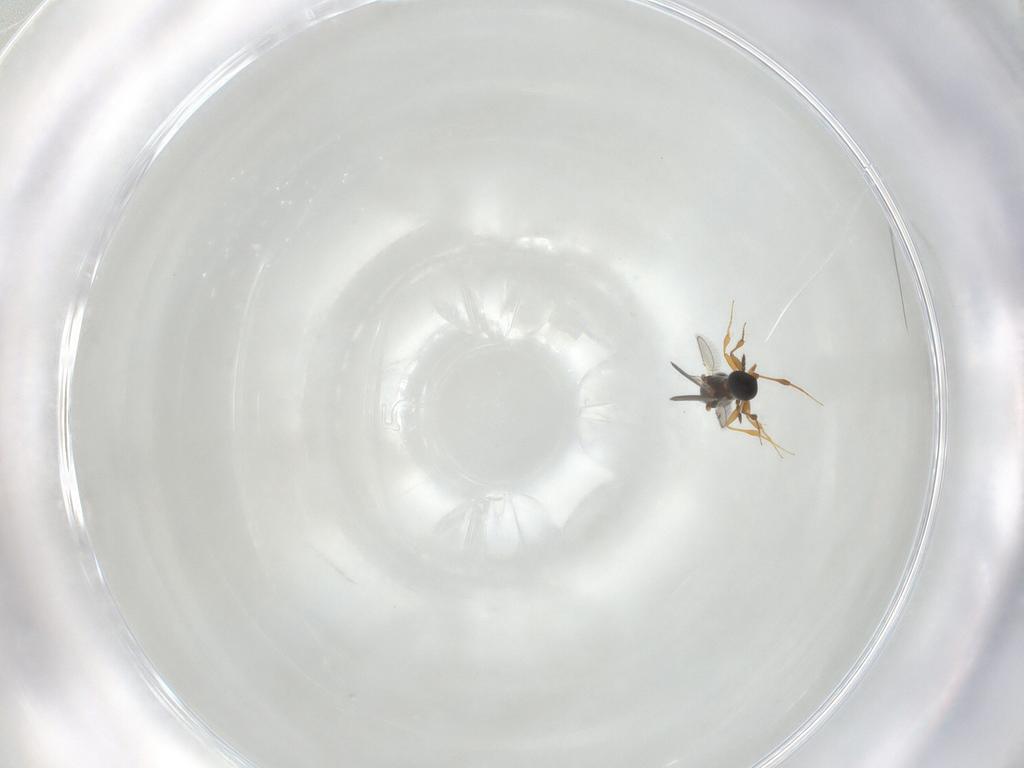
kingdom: Animalia
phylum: Arthropoda
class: Insecta
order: Hymenoptera
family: Platygastridae
